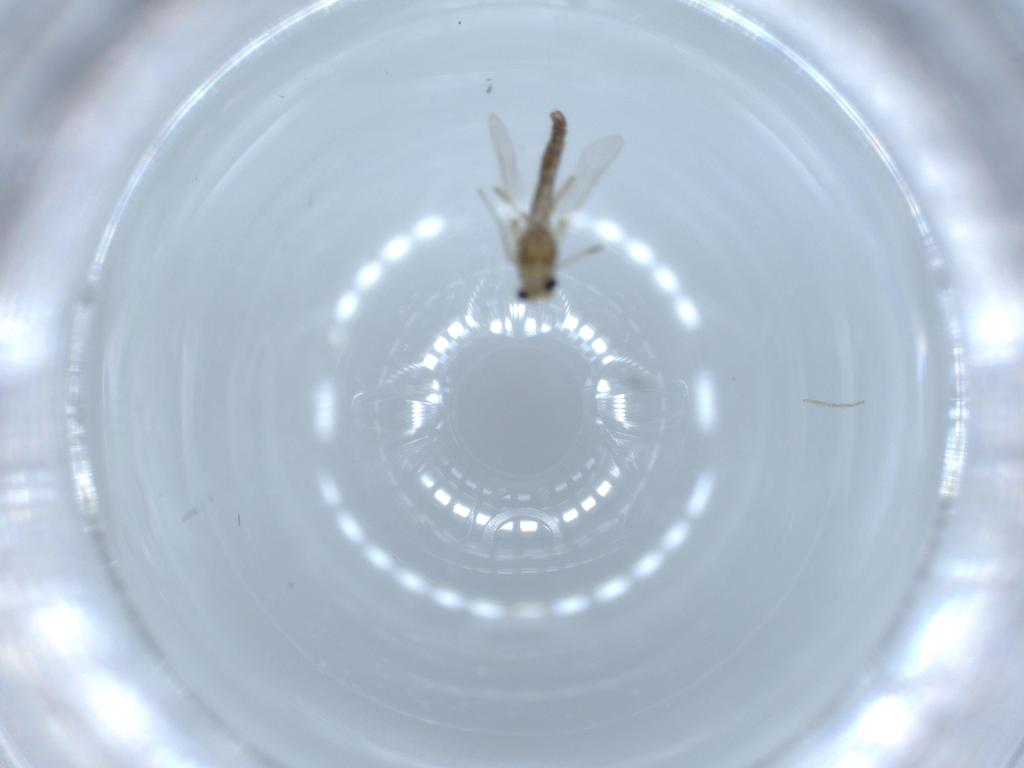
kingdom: Animalia
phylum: Arthropoda
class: Insecta
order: Diptera
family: Chironomidae
